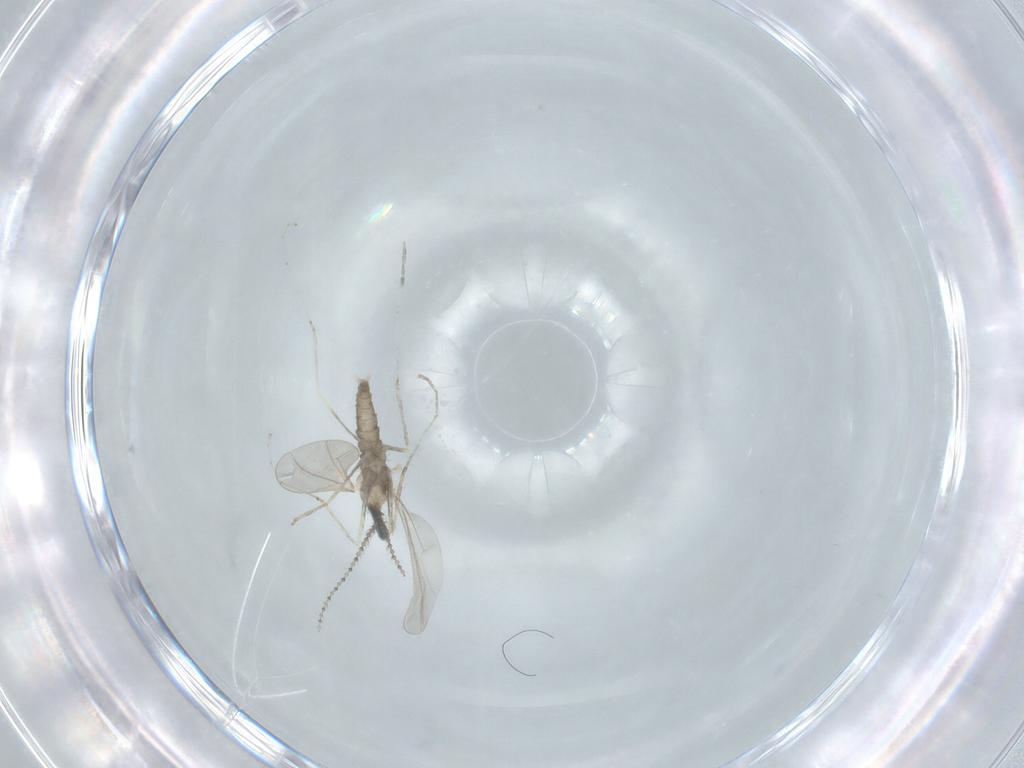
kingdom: Animalia
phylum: Arthropoda
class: Insecta
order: Diptera
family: Cecidomyiidae
